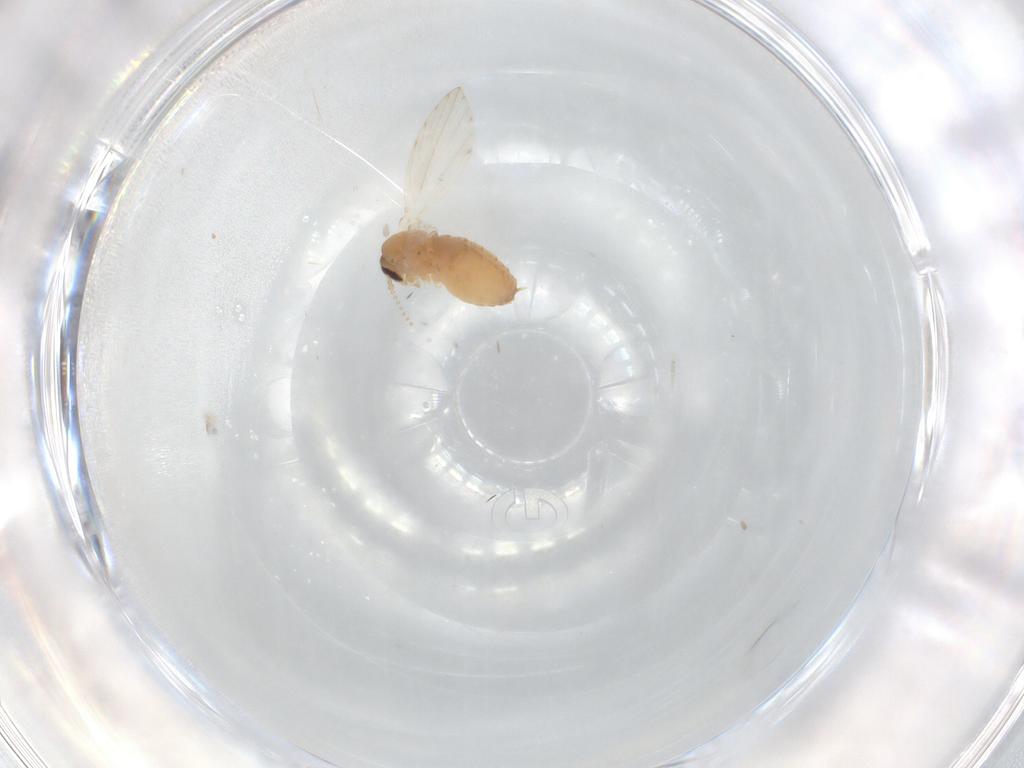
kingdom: Animalia
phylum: Arthropoda
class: Insecta
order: Diptera
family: Psychodidae
